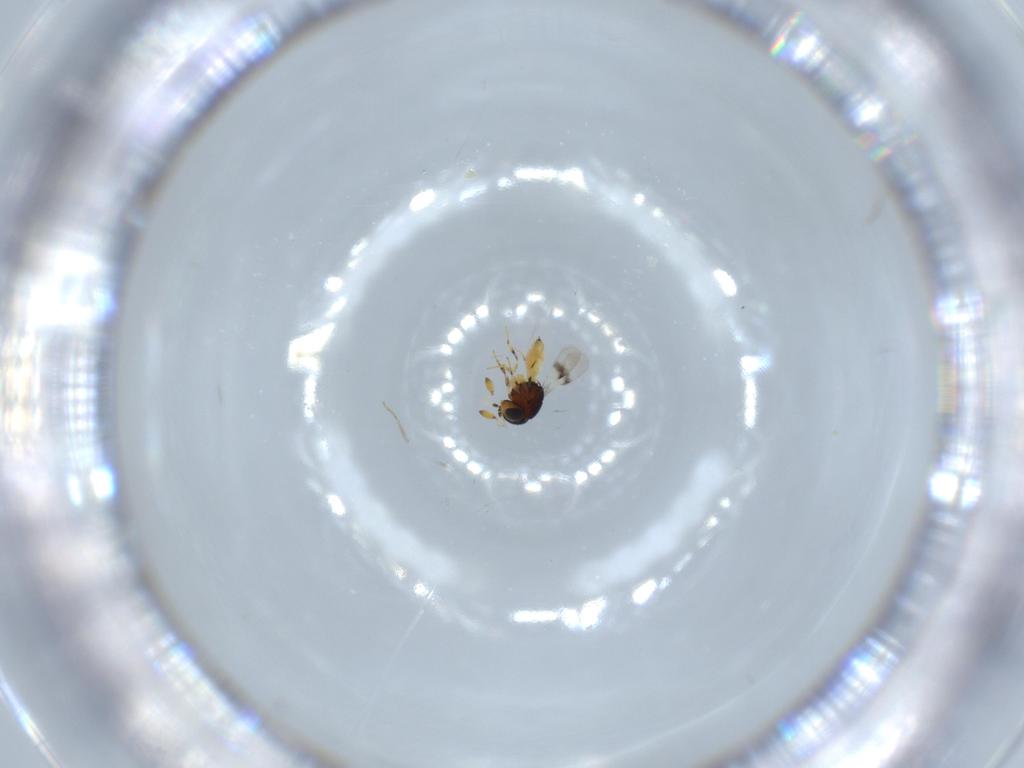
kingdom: Animalia
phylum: Arthropoda
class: Insecta
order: Hymenoptera
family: Scelionidae
